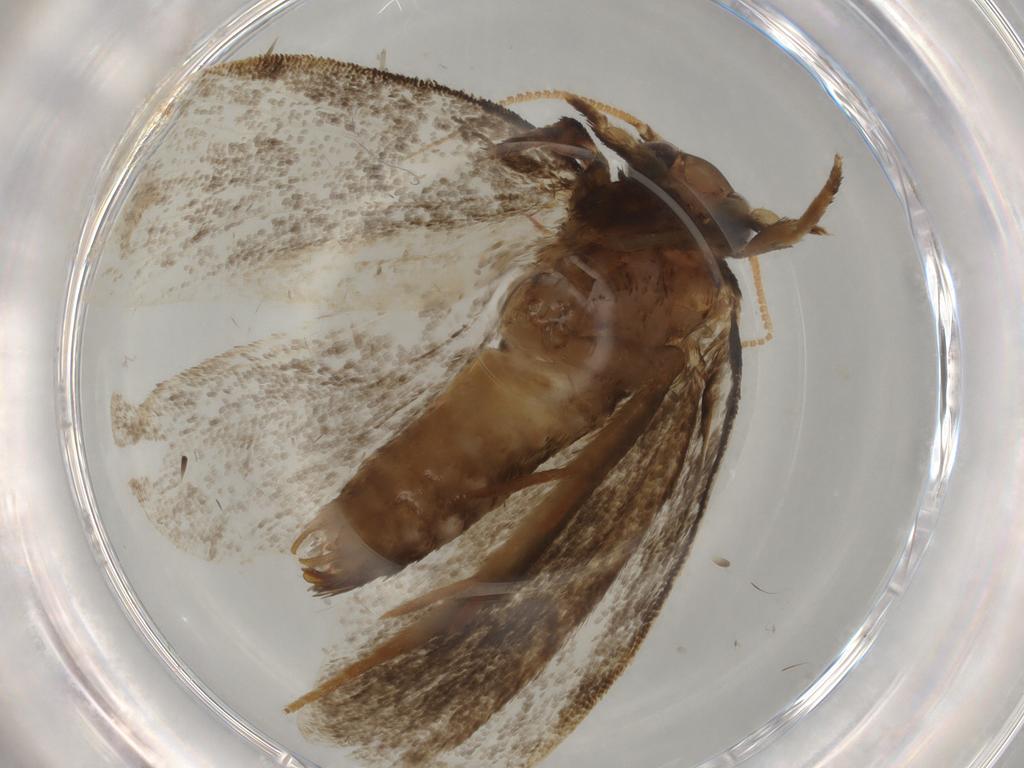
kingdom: Animalia
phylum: Arthropoda
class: Insecta
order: Lepidoptera
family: Tineidae
